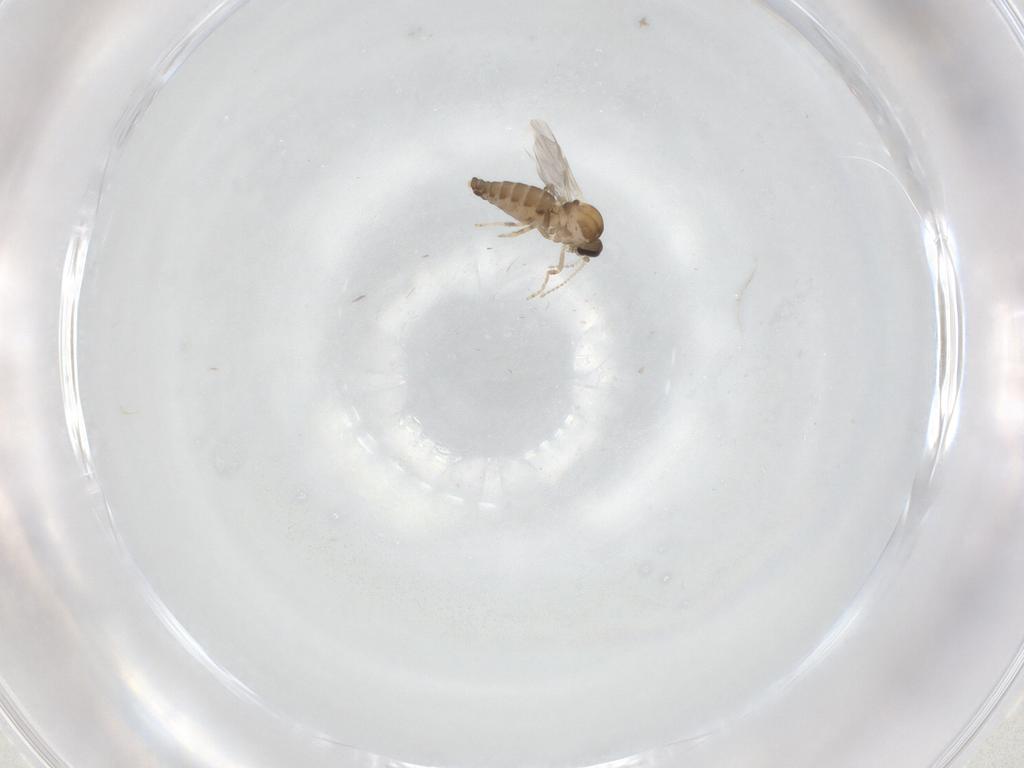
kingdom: Animalia
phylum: Arthropoda
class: Insecta
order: Diptera
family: Ceratopogonidae
